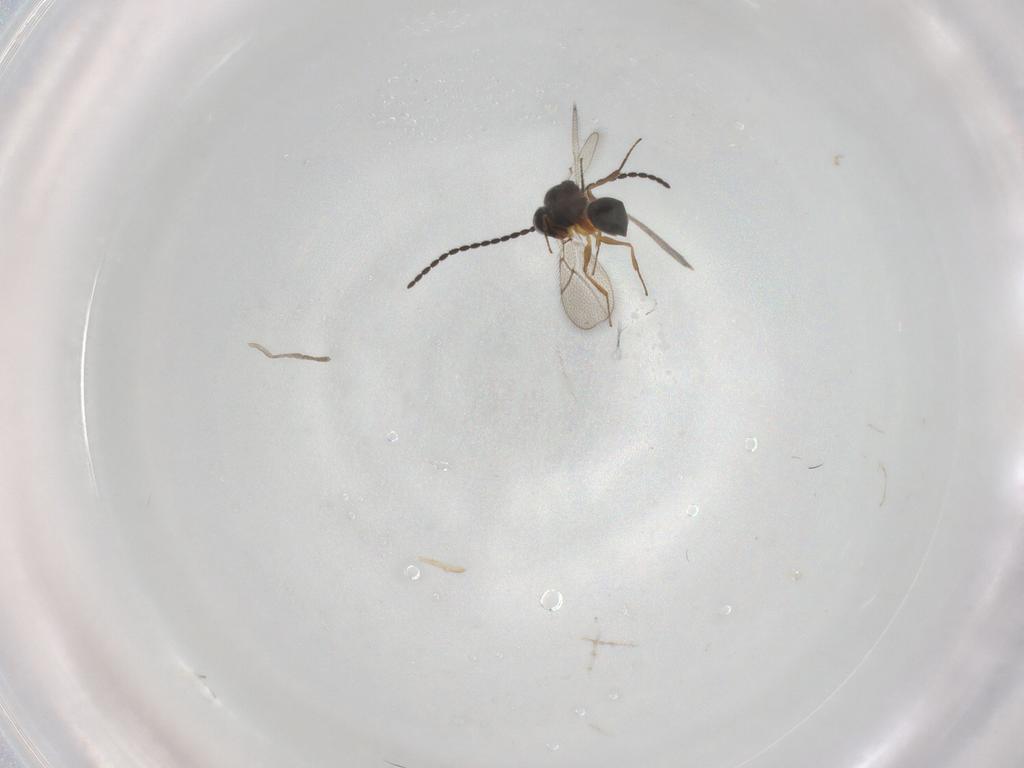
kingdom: Animalia
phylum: Arthropoda
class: Insecta
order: Hymenoptera
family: Figitidae
